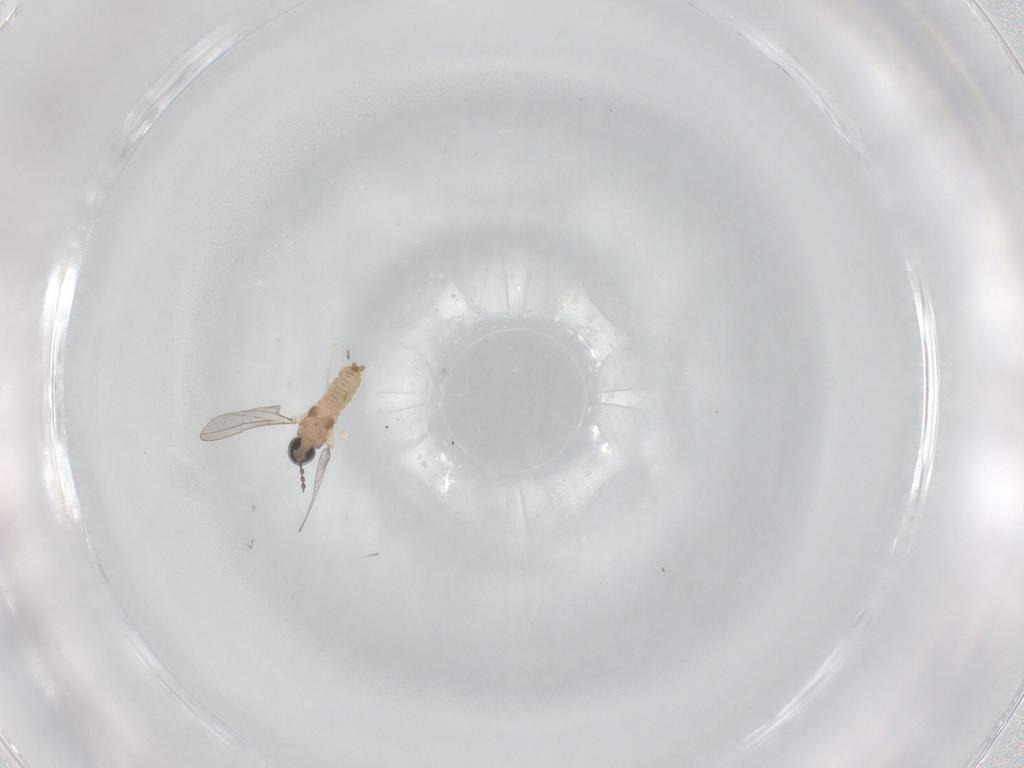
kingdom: Animalia
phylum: Arthropoda
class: Insecta
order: Diptera
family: Cecidomyiidae
